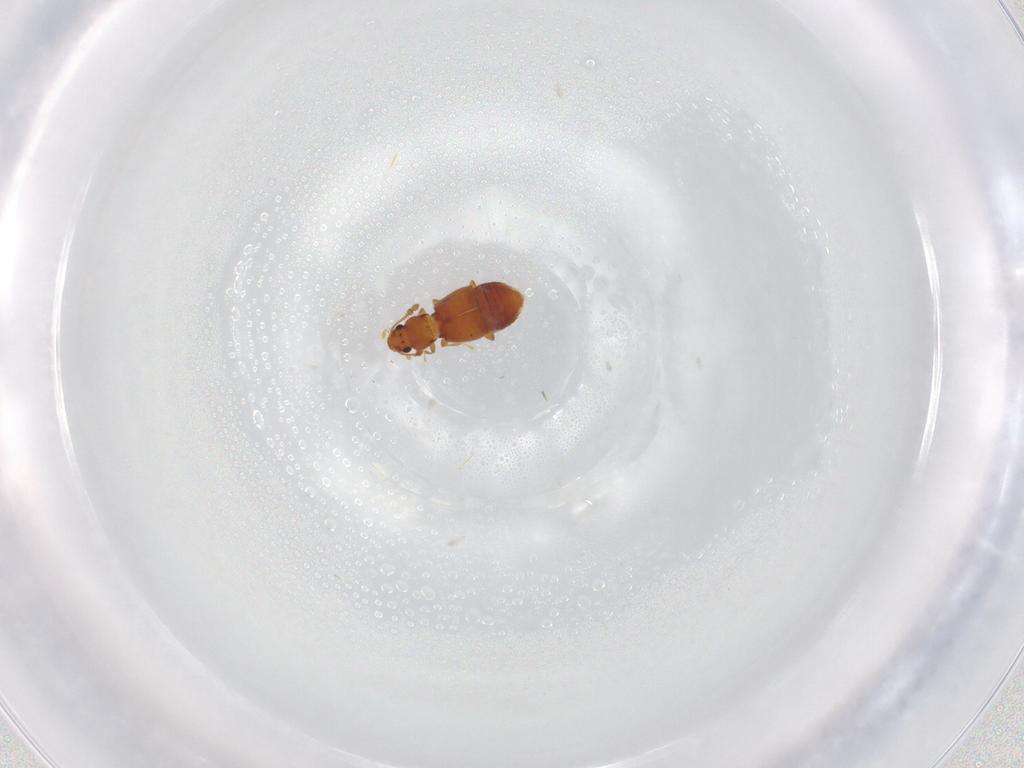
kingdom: Animalia
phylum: Arthropoda
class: Insecta
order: Coleoptera
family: Staphylinidae
